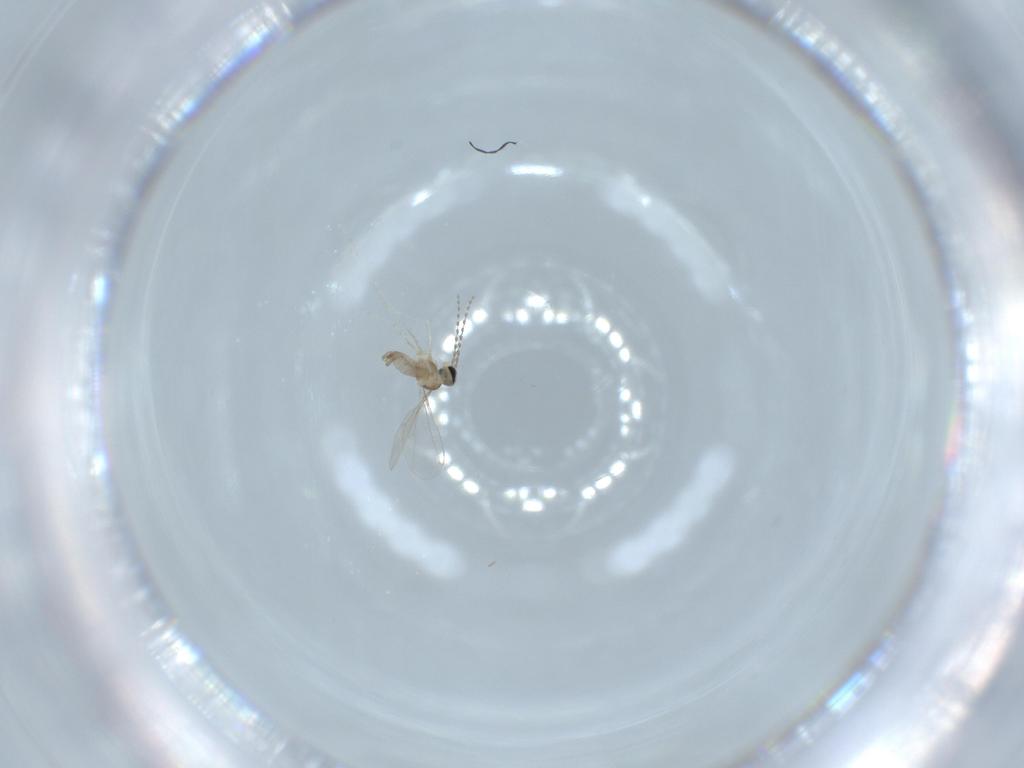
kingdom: Animalia
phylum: Arthropoda
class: Insecta
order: Diptera
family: Cecidomyiidae
